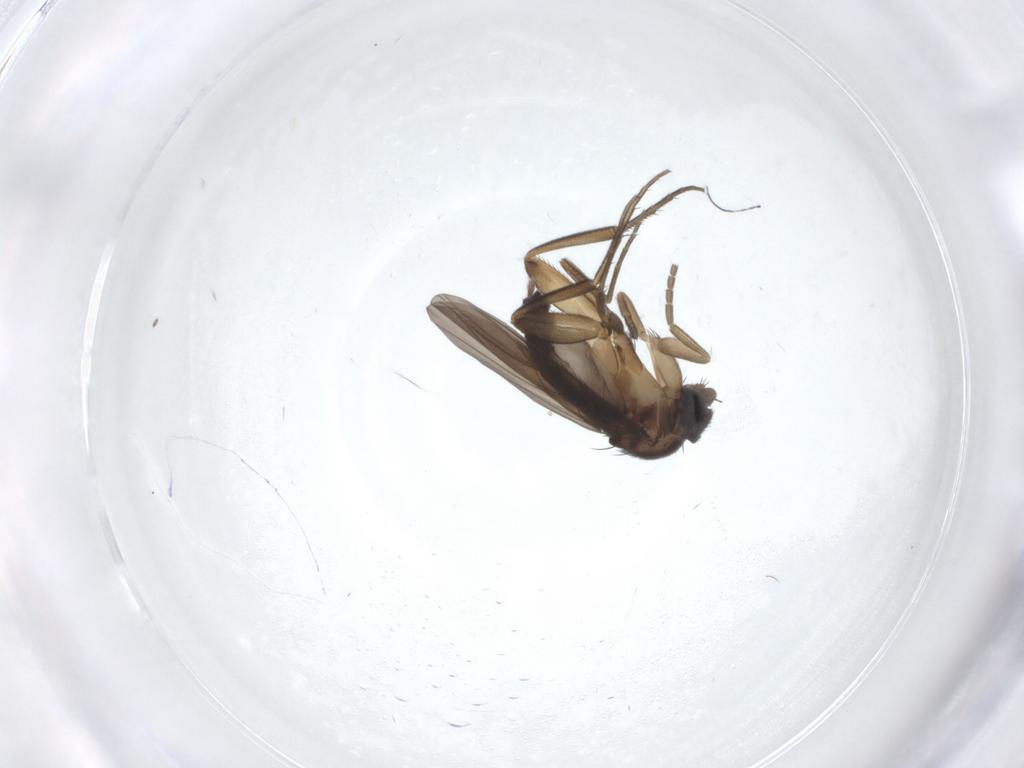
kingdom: Animalia
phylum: Arthropoda
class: Insecta
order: Diptera
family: Phoridae
